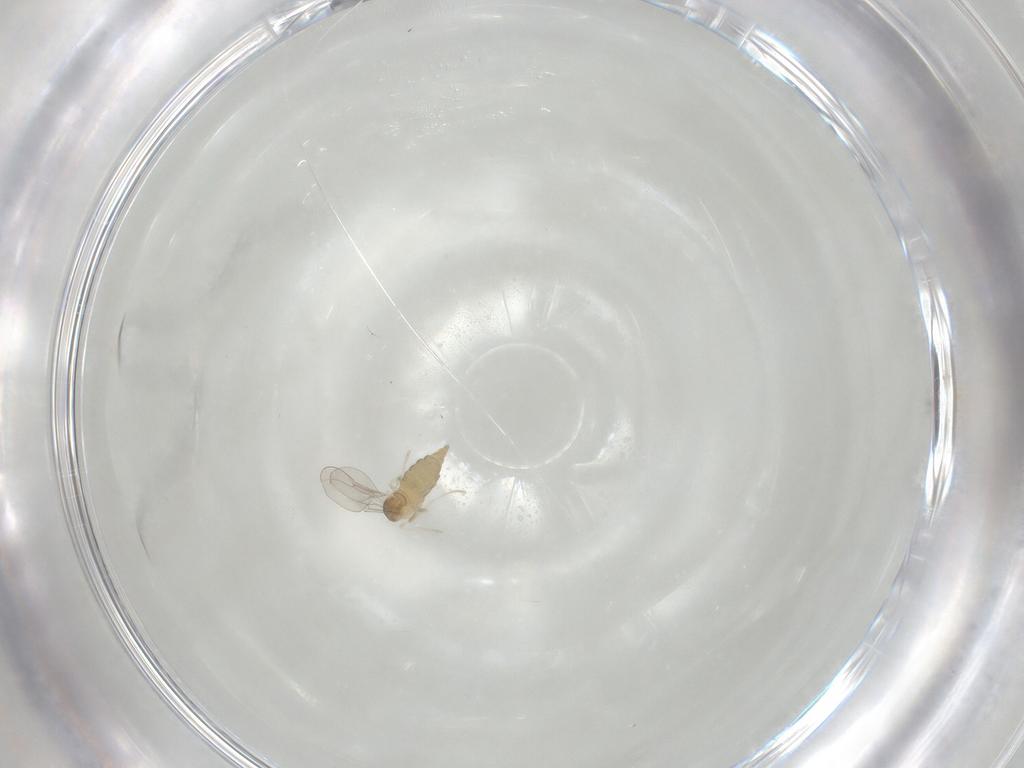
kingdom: Animalia
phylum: Arthropoda
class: Insecta
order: Diptera
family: Cecidomyiidae
